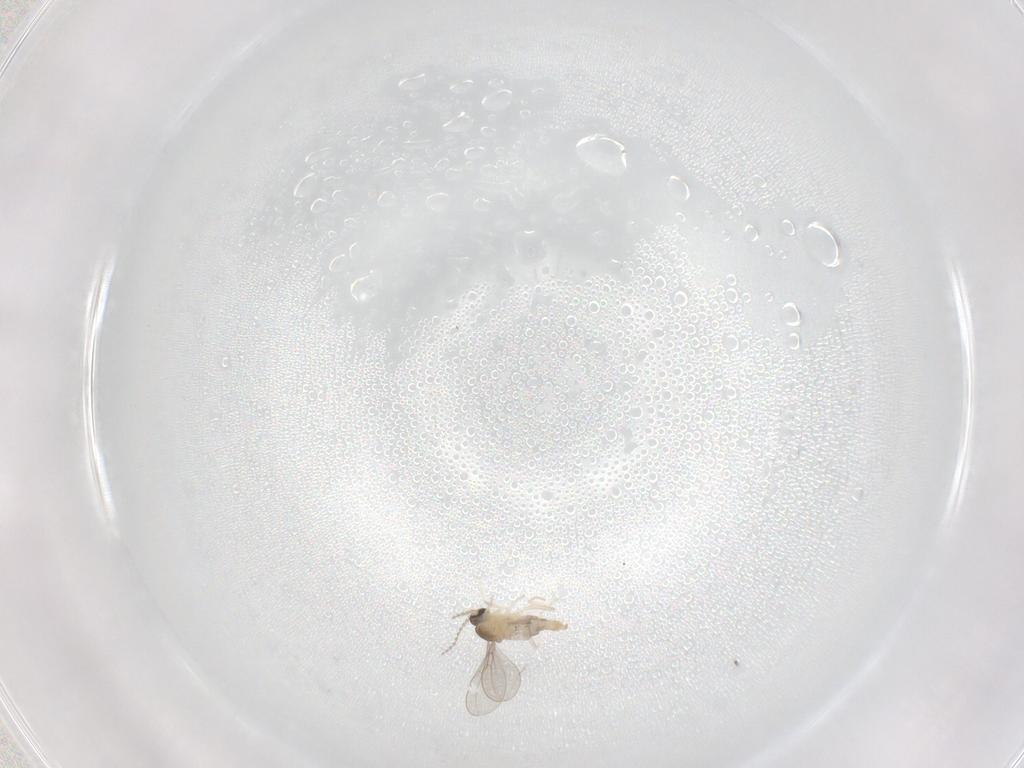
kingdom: Animalia
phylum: Arthropoda
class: Insecta
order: Diptera
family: Cecidomyiidae
